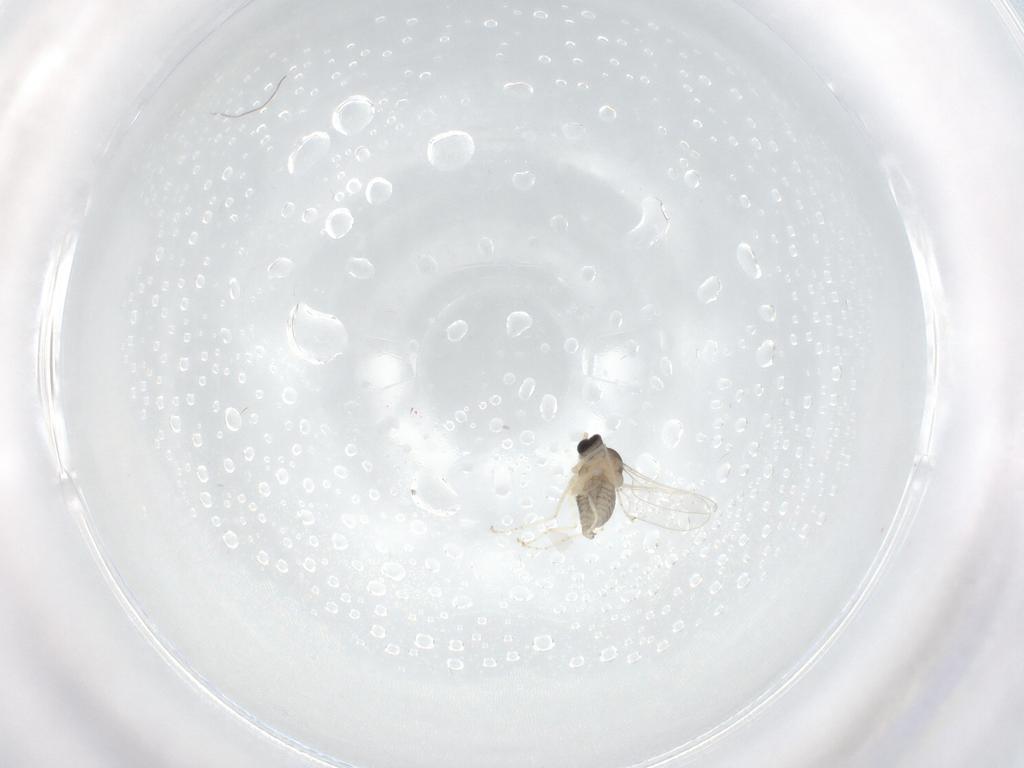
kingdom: Animalia
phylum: Arthropoda
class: Insecta
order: Diptera
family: Cecidomyiidae
